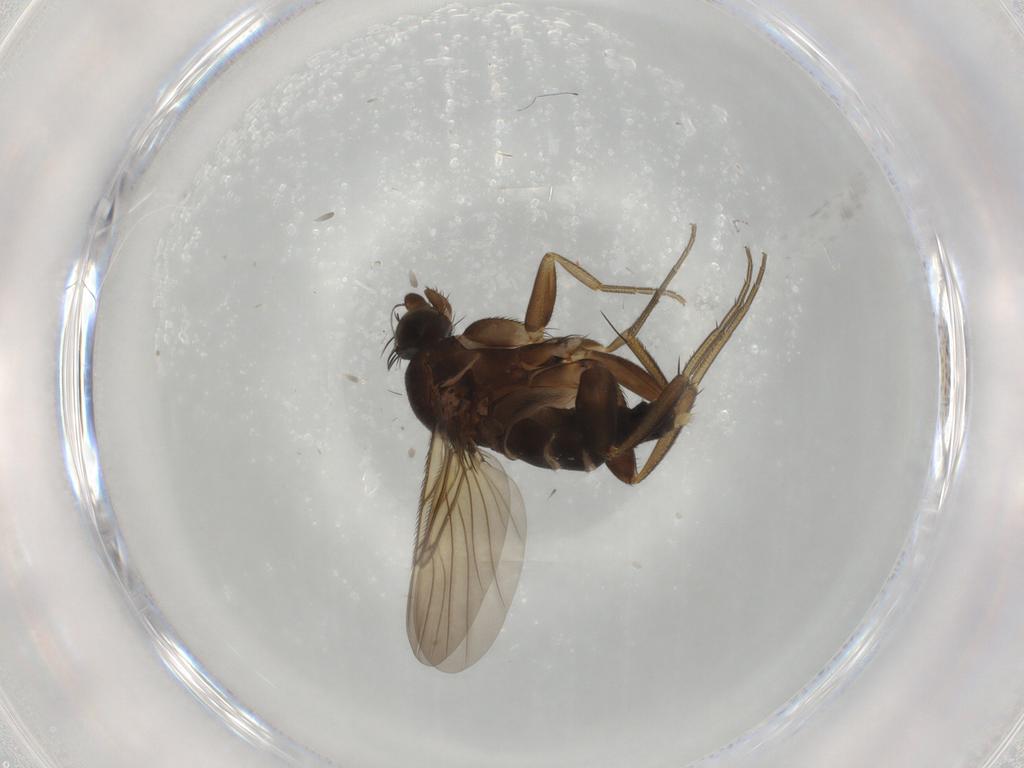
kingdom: Animalia
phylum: Arthropoda
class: Insecta
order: Diptera
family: Phoridae
